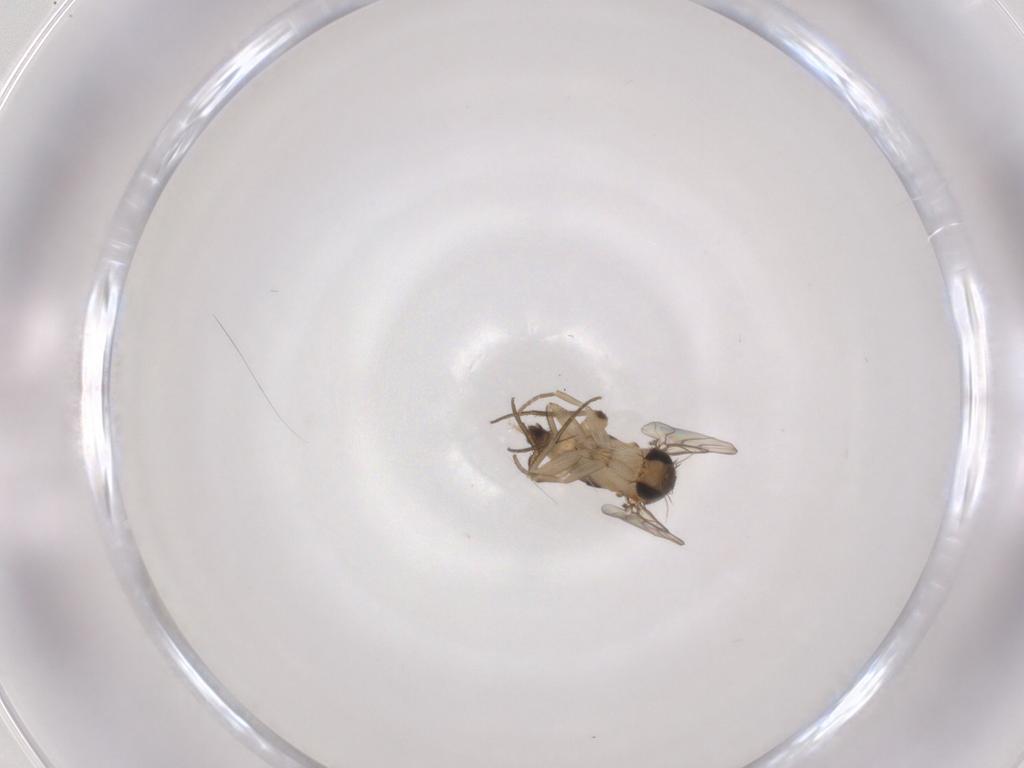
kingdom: Animalia
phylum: Arthropoda
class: Insecta
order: Diptera
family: Phoridae
